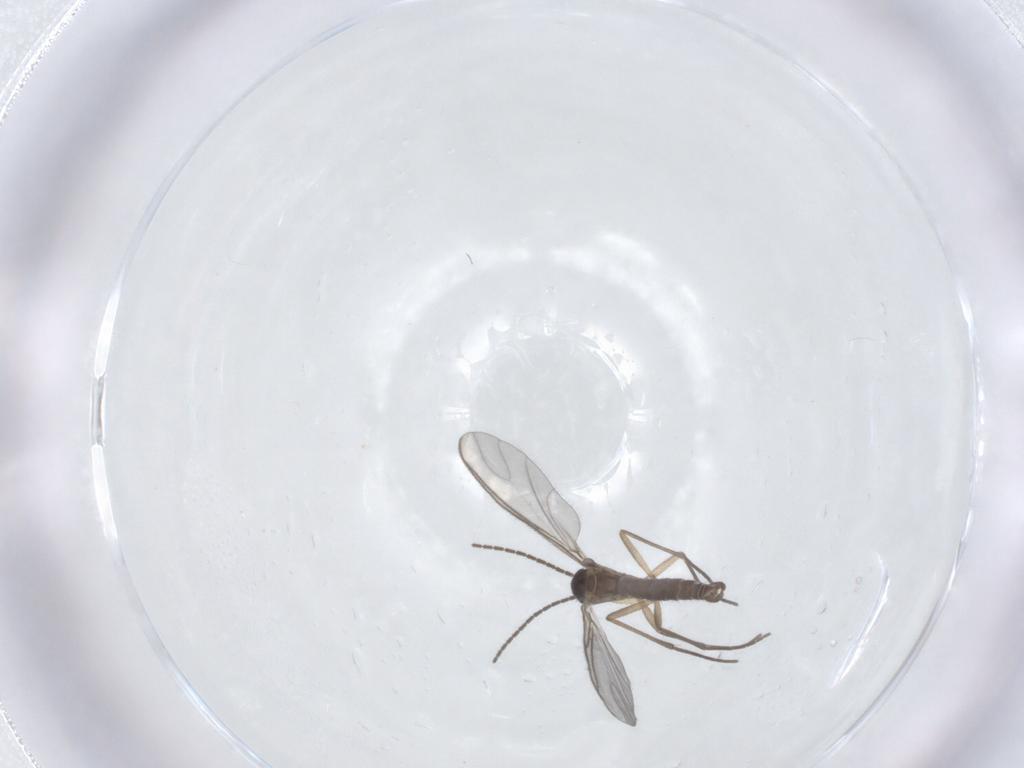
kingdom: Animalia
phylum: Arthropoda
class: Insecta
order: Diptera
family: Sciaridae
